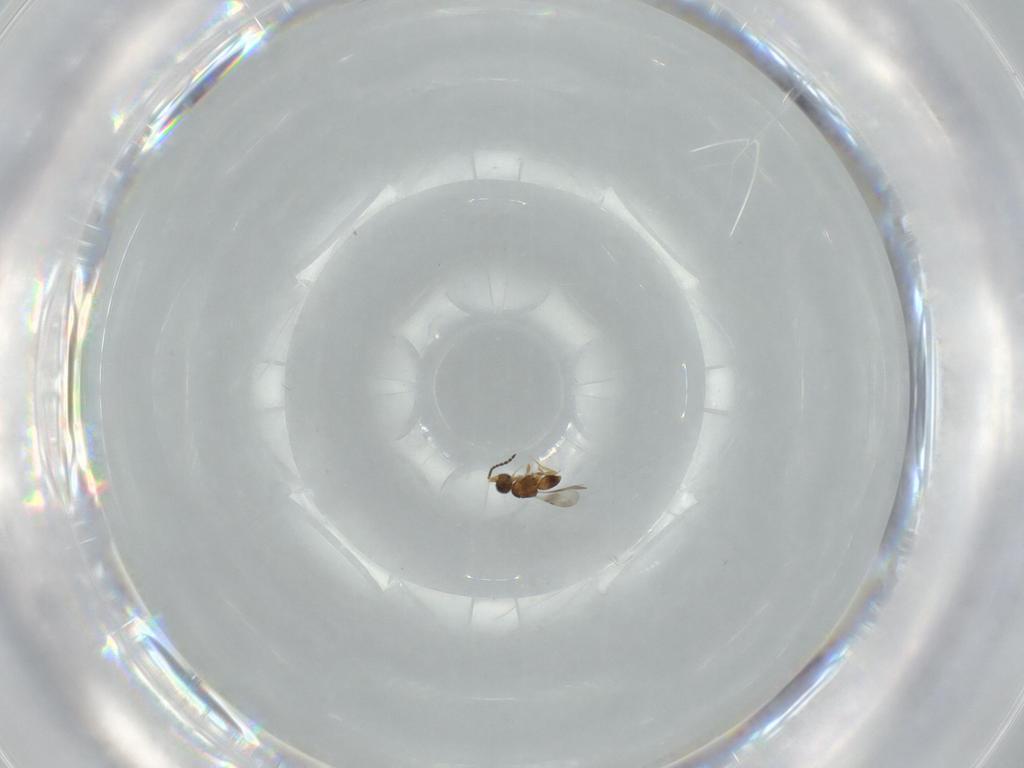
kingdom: Animalia
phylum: Arthropoda
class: Insecta
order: Hymenoptera
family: Ceraphronidae
